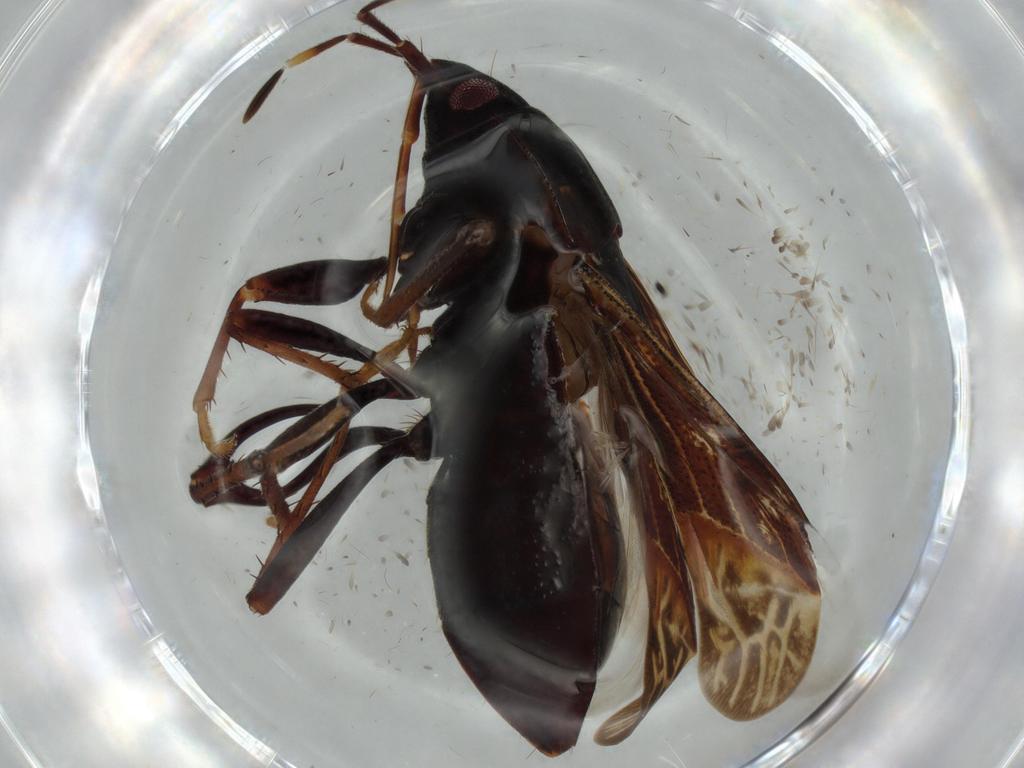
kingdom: Animalia
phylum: Arthropoda
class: Insecta
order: Hemiptera
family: Rhyparochromidae
